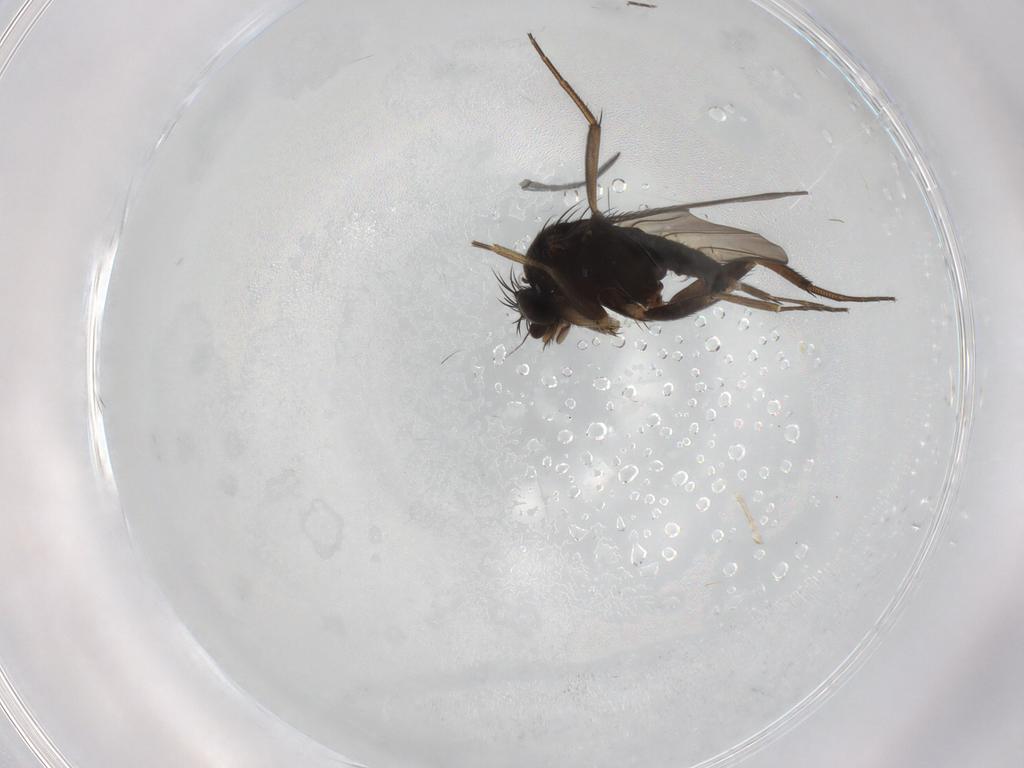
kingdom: Animalia
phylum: Arthropoda
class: Insecta
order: Diptera
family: Phoridae
